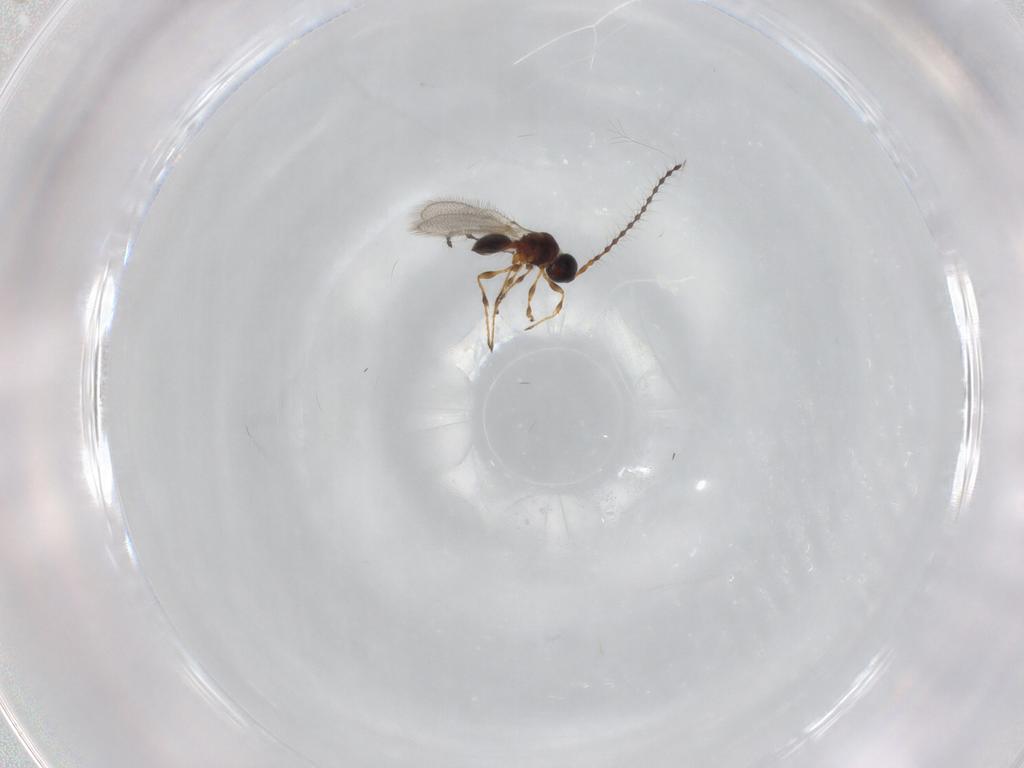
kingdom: Animalia
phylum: Arthropoda
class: Insecta
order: Hymenoptera
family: Diapriidae
